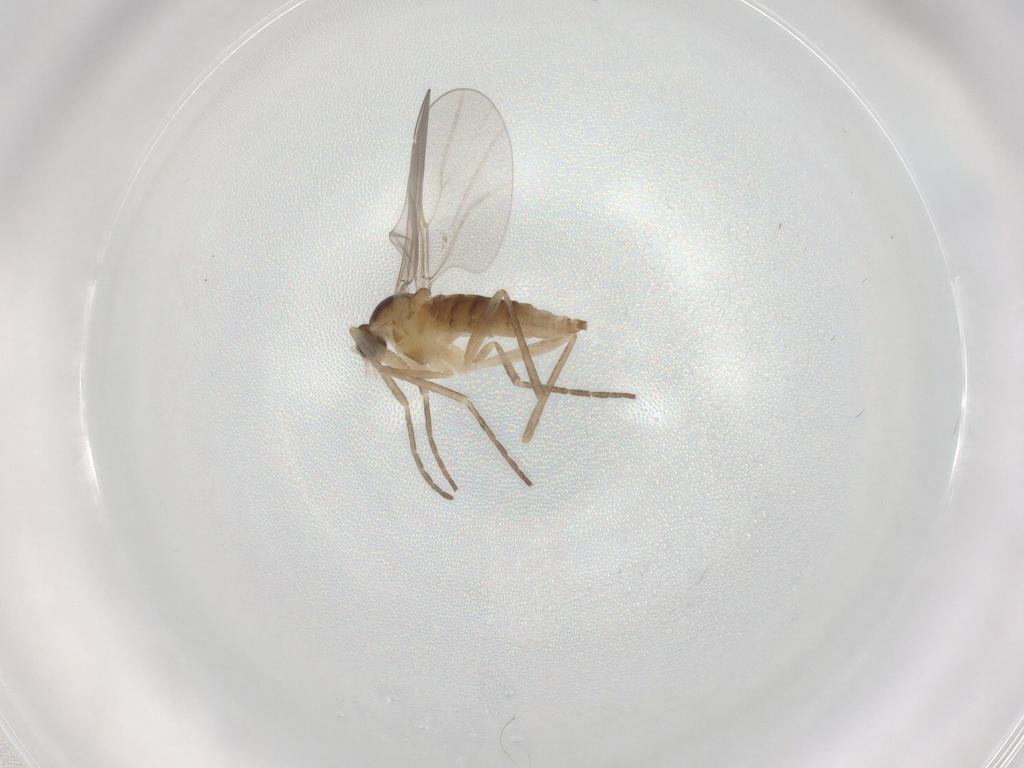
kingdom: Animalia
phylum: Arthropoda
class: Insecta
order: Diptera
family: Cecidomyiidae
